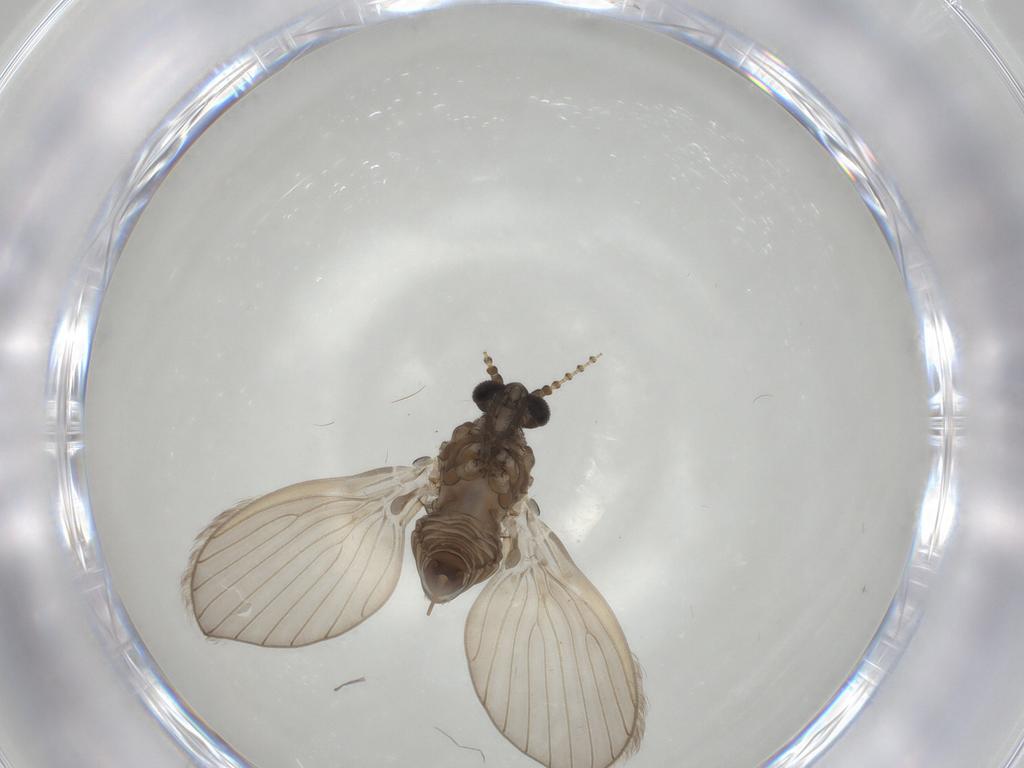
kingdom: Animalia
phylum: Arthropoda
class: Insecta
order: Diptera
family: Psychodidae
